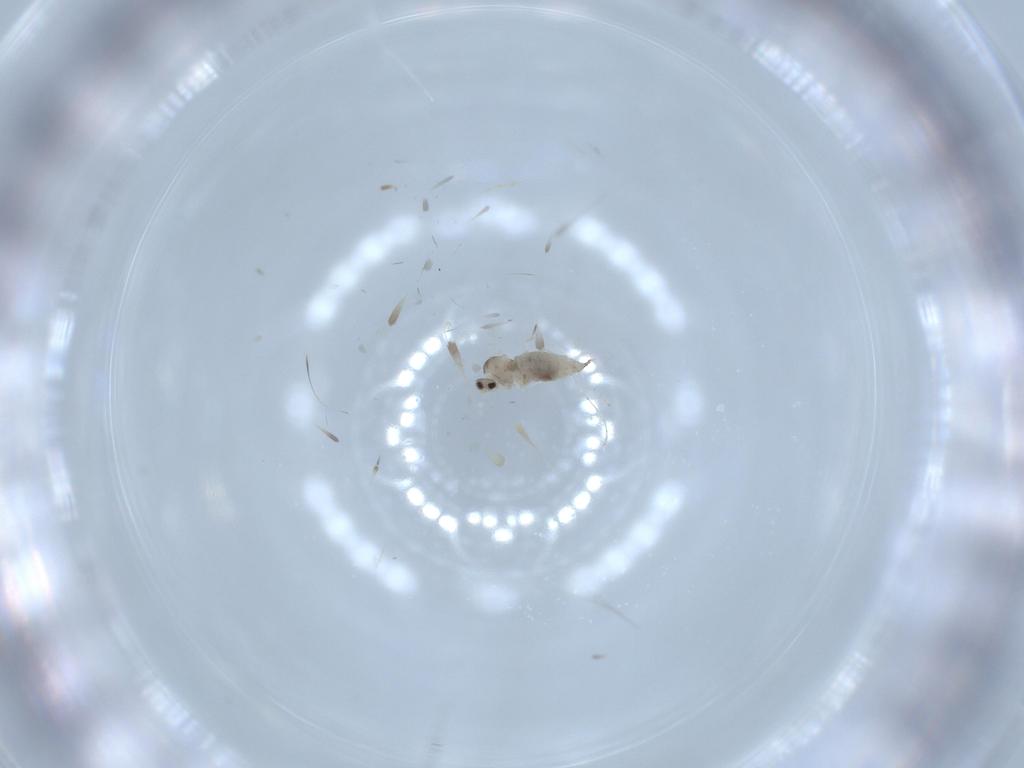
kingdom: Animalia
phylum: Arthropoda
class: Insecta
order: Diptera
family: Cecidomyiidae
